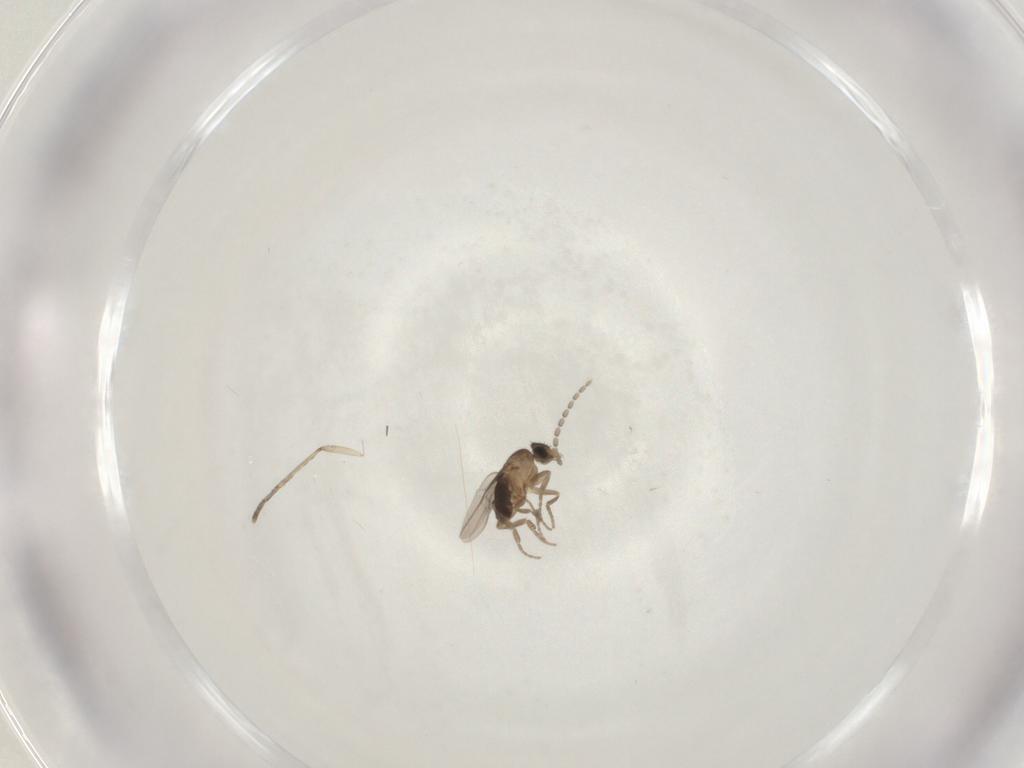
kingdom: Animalia
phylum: Arthropoda
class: Insecta
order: Diptera
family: Cecidomyiidae
